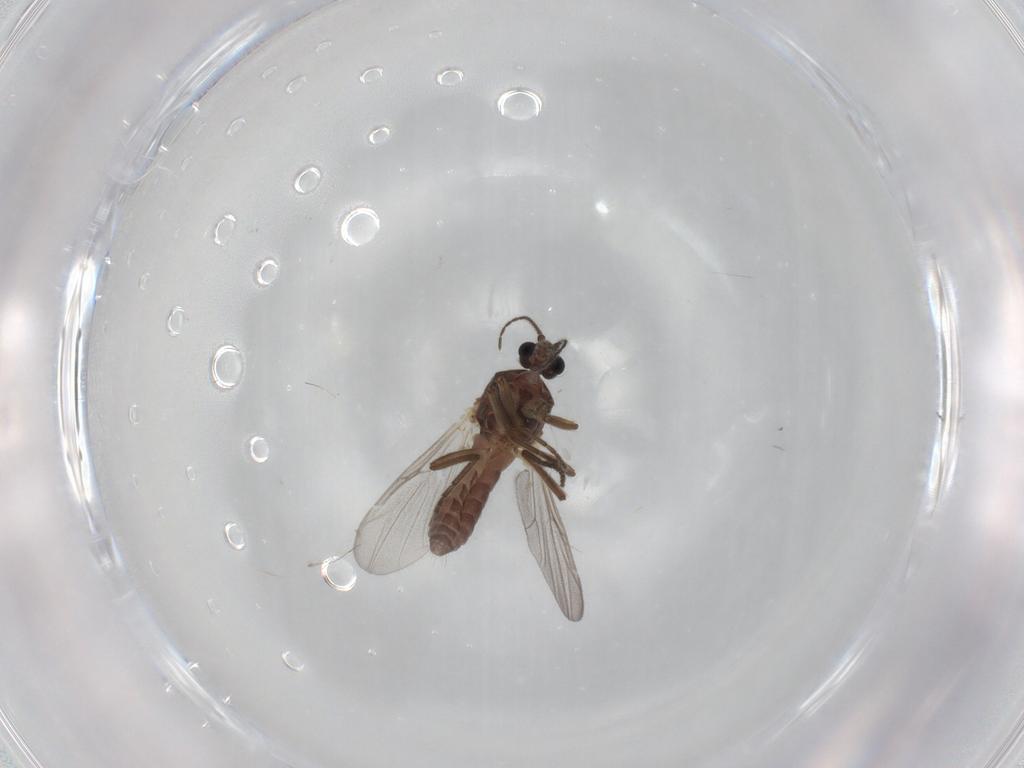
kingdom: Animalia
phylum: Arthropoda
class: Insecta
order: Diptera
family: Ceratopogonidae
